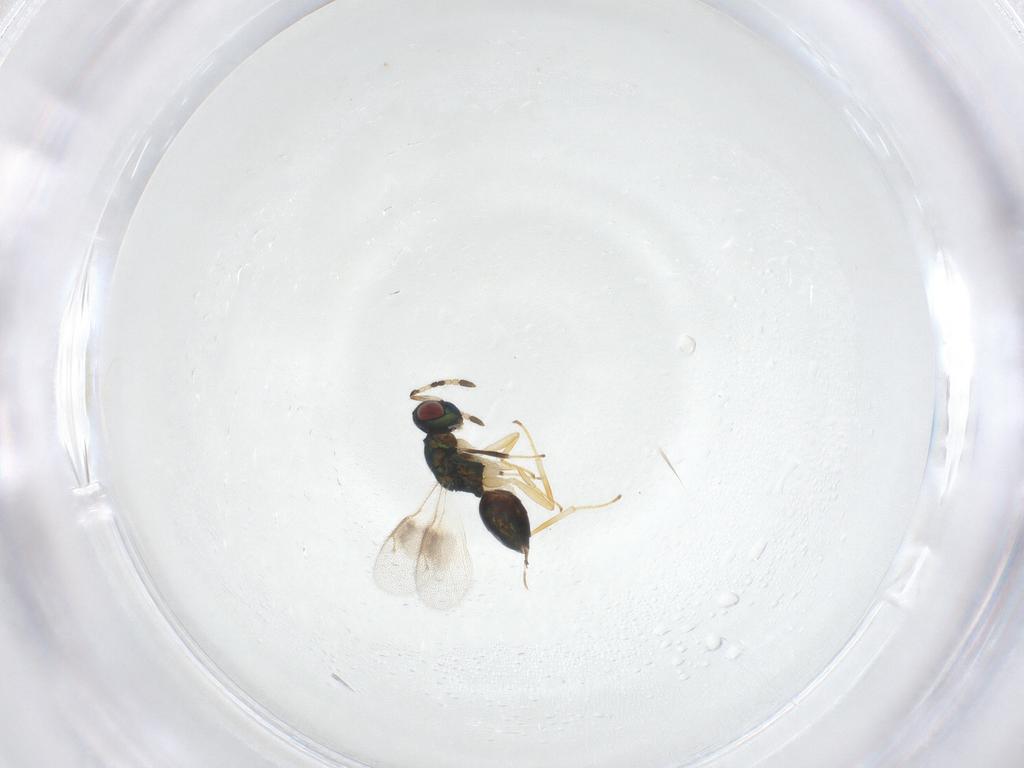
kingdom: Animalia
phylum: Arthropoda
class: Insecta
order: Hymenoptera
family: Pteromalidae
